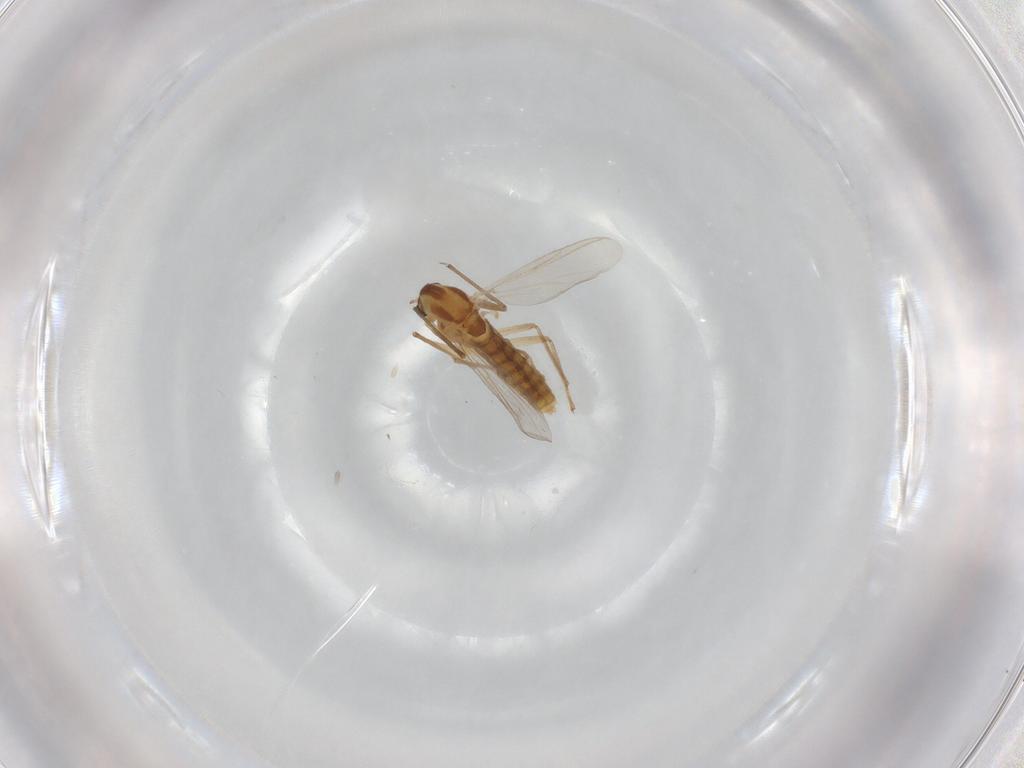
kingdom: Animalia
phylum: Arthropoda
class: Insecta
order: Diptera
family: Chironomidae
